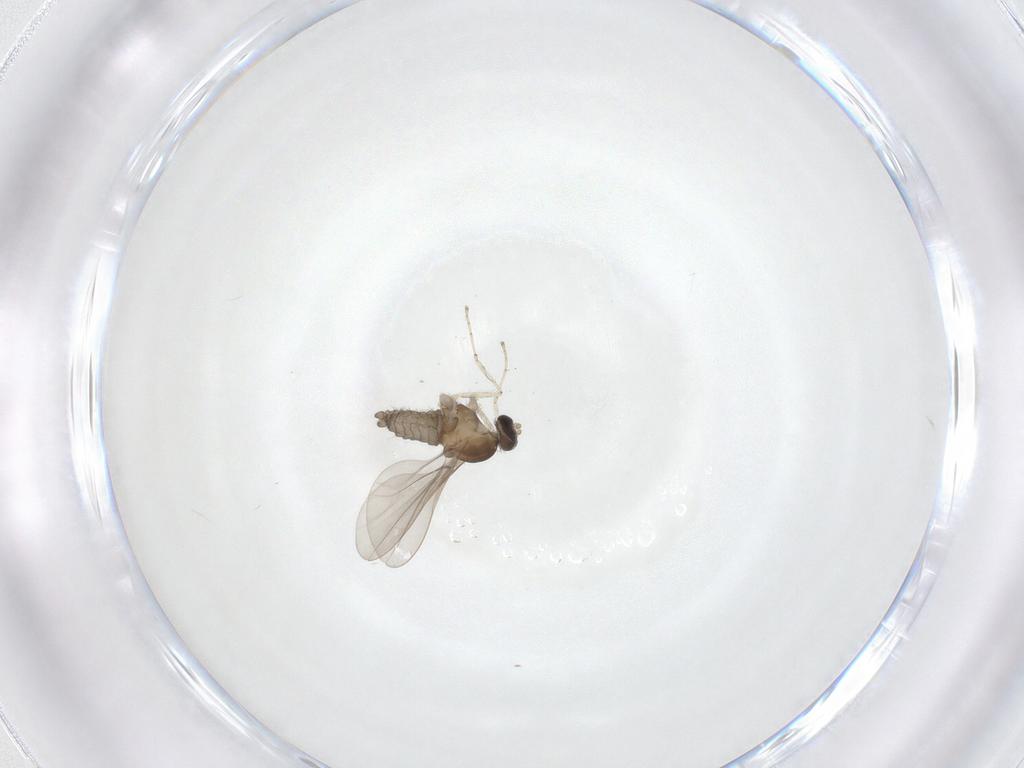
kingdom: Animalia
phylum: Arthropoda
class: Insecta
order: Diptera
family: Cecidomyiidae
